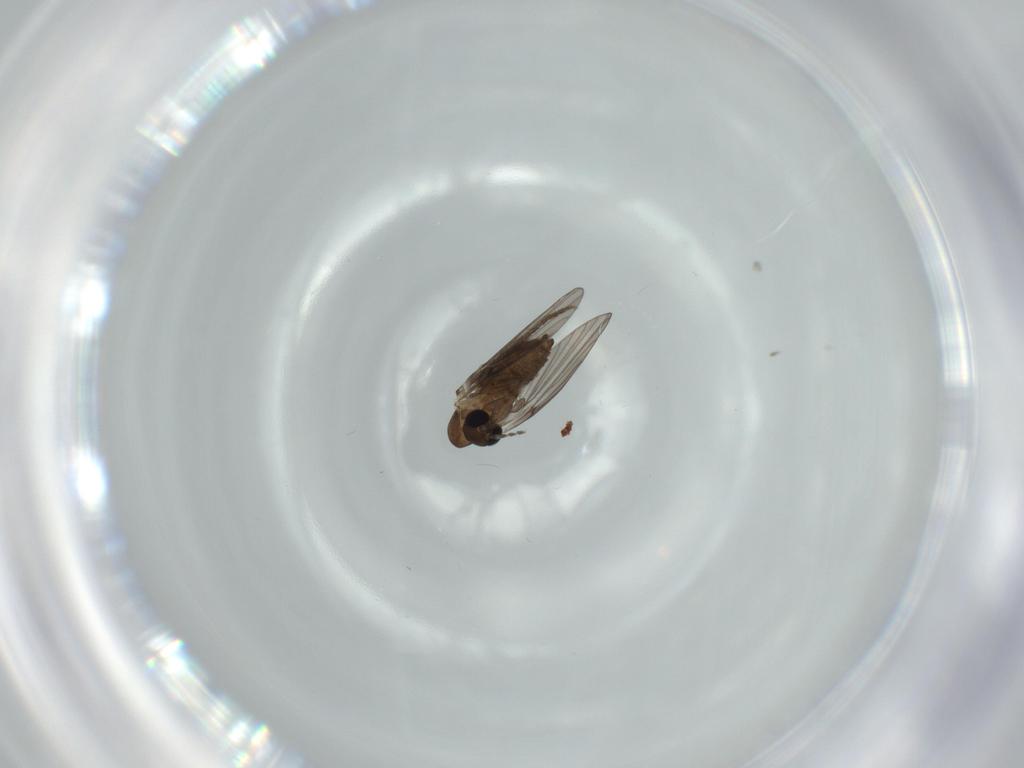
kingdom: Animalia
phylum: Arthropoda
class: Insecta
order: Diptera
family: Psychodidae
